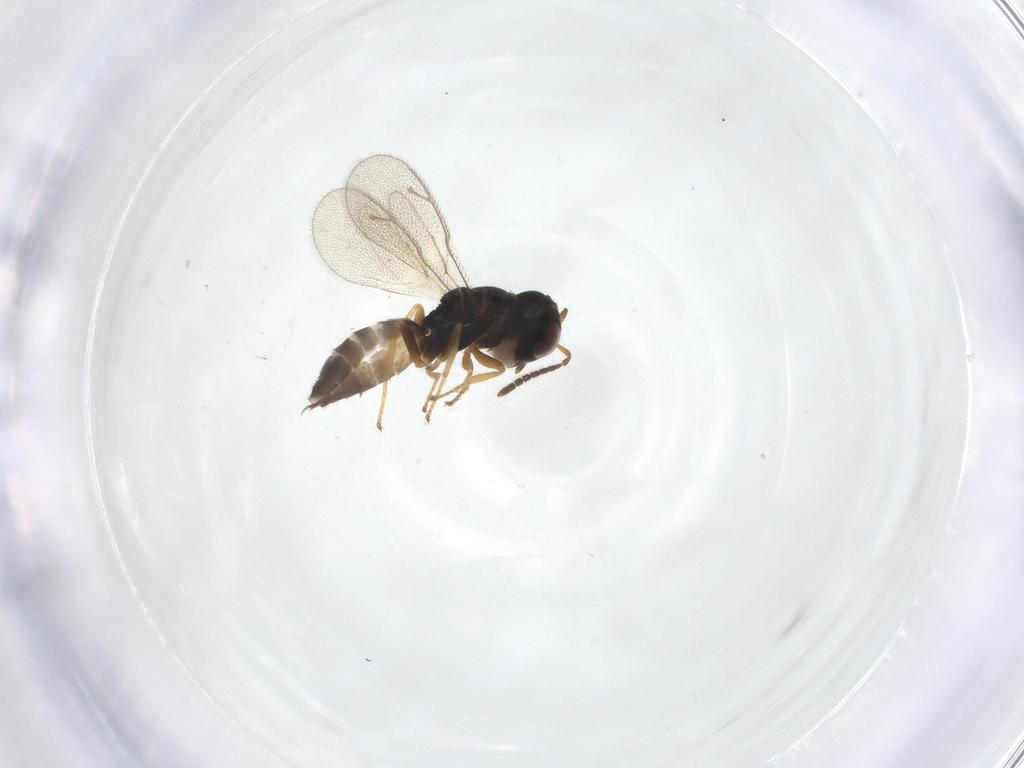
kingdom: Animalia
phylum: Arthropoda
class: Insecta
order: Hymenoptera
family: Pteromalidae
